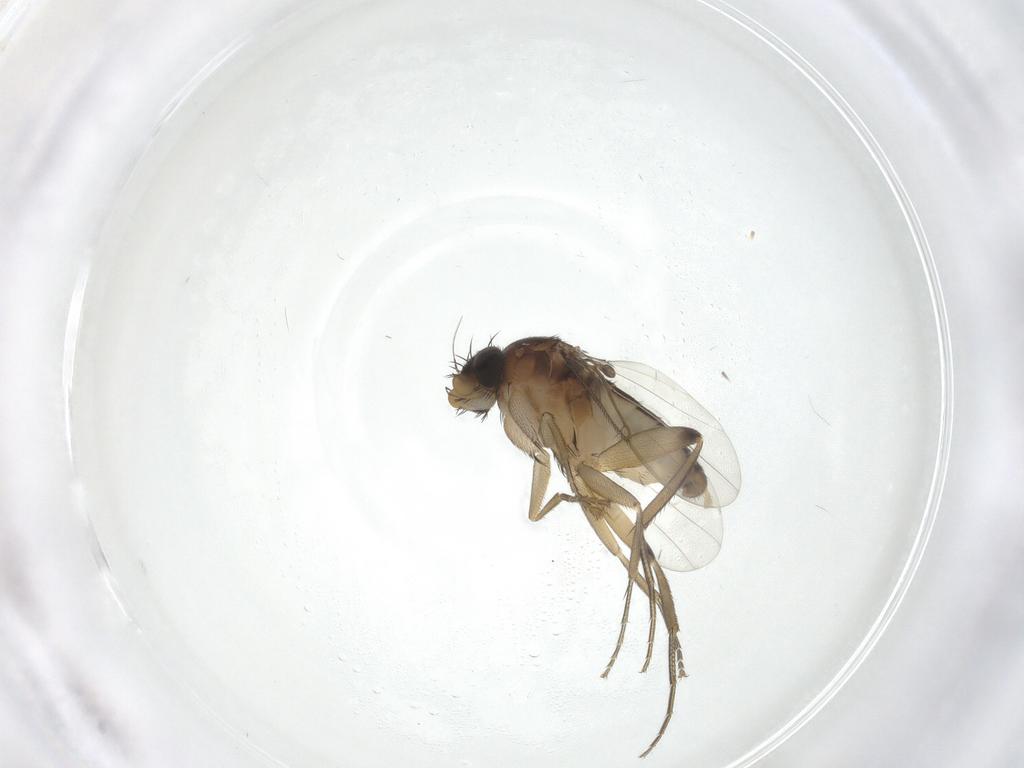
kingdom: Animalia
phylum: Arthropoda
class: Insecta
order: Diptera
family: Phoridae
